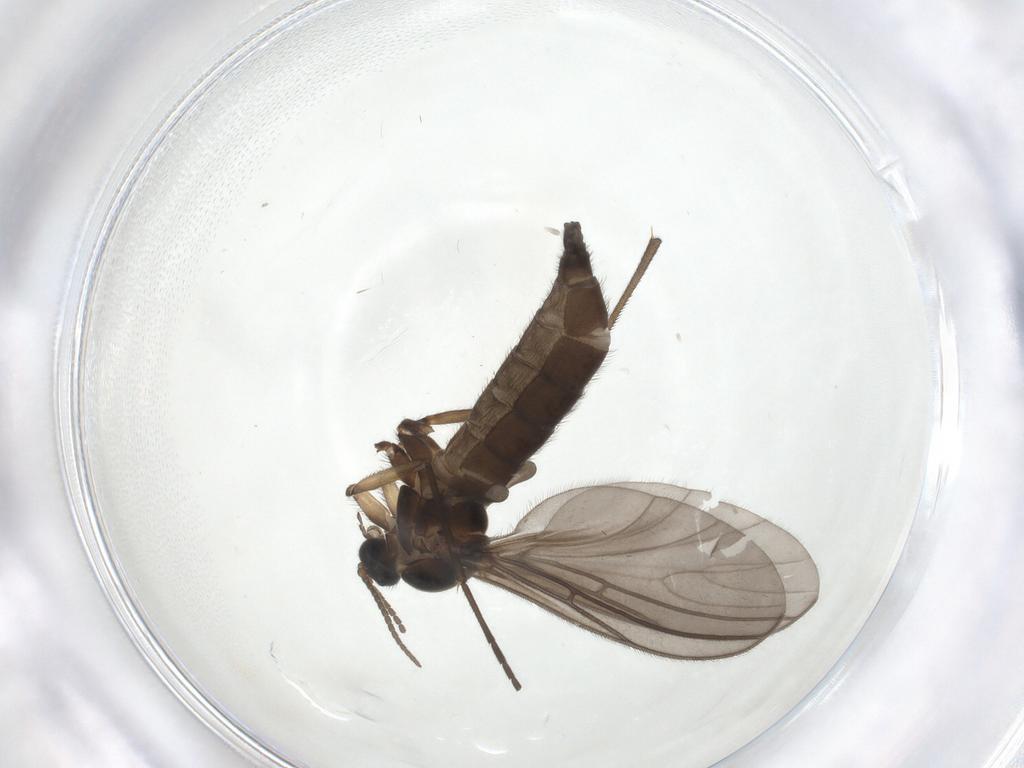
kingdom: Animalia
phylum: Arthropoda
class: Insecta
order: Diptera
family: Sciaridae
